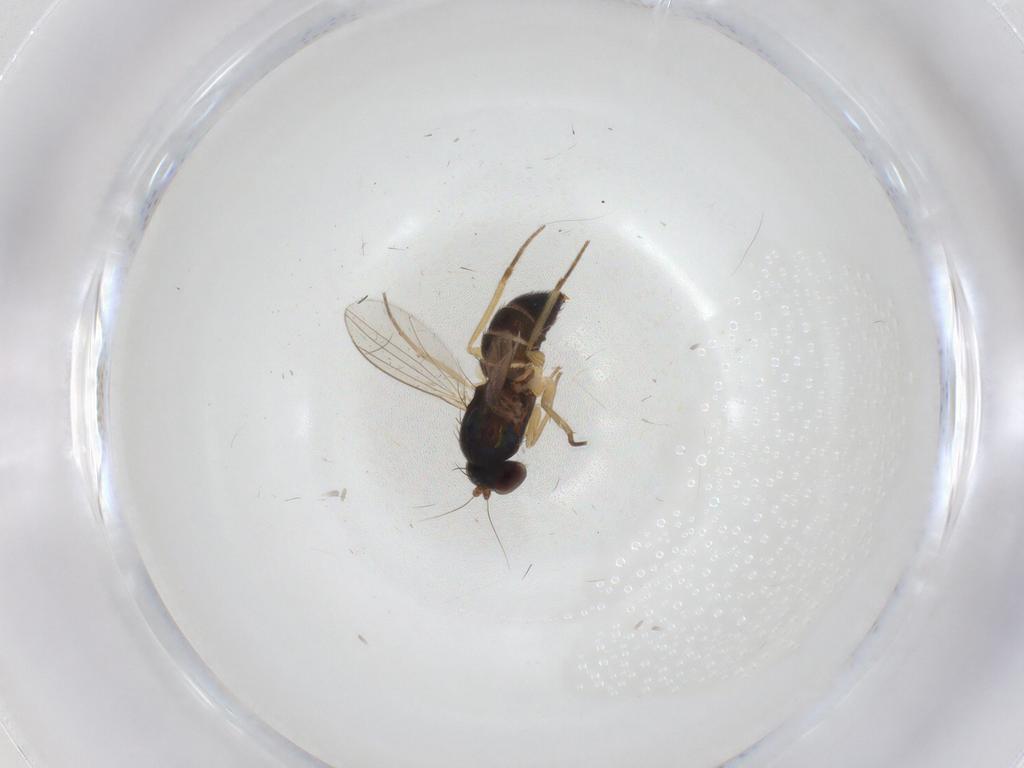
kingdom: Animalia
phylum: Arthropoda
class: Insecta
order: Diptera
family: Dolichopodidae
